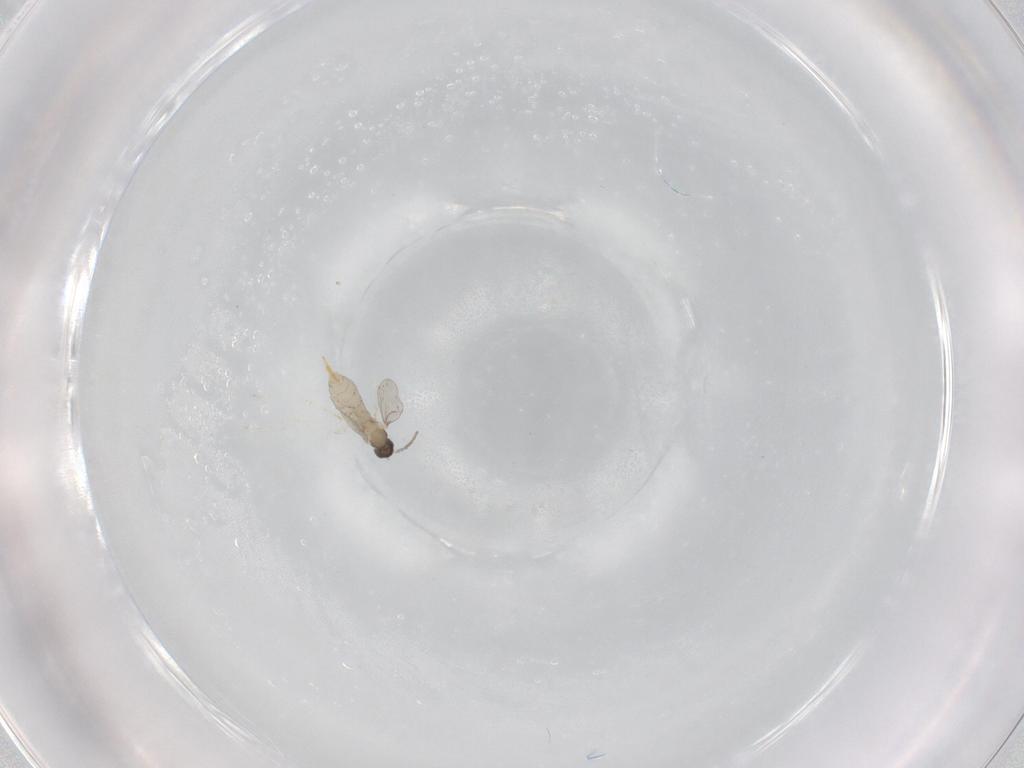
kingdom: Animalia
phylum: Arthropoda
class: Insecta
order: Diptera
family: Cecidomyiidae
